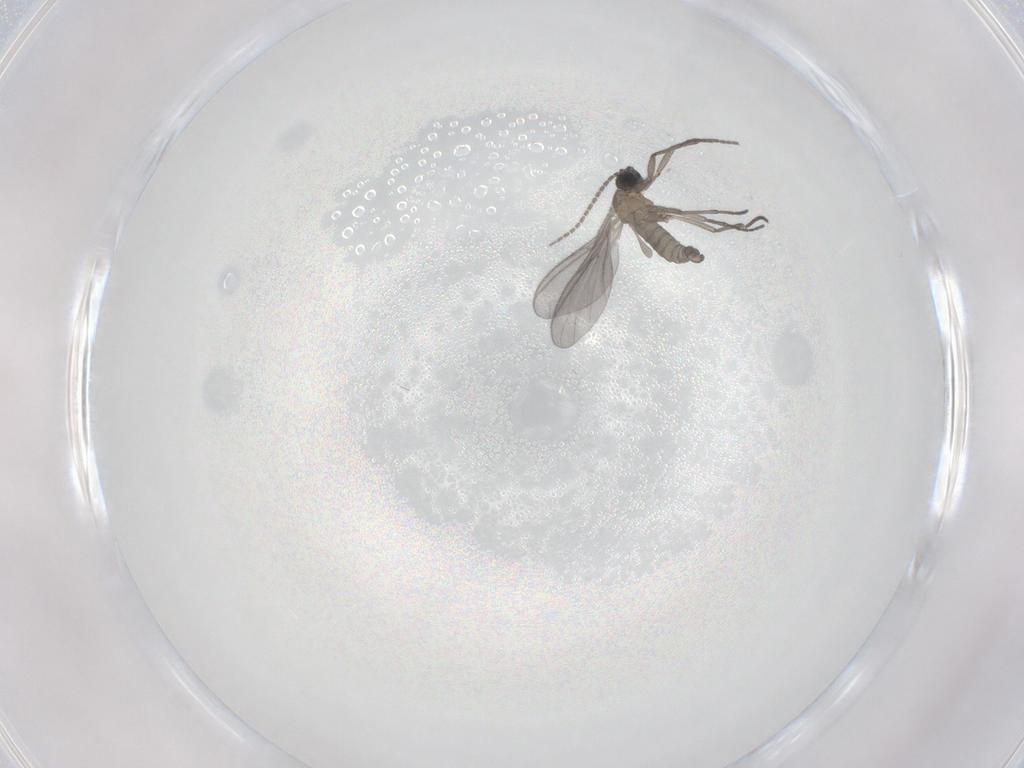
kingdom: Animalia
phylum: Arthropoda
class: Insecta
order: Diptera
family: Sciaridae
